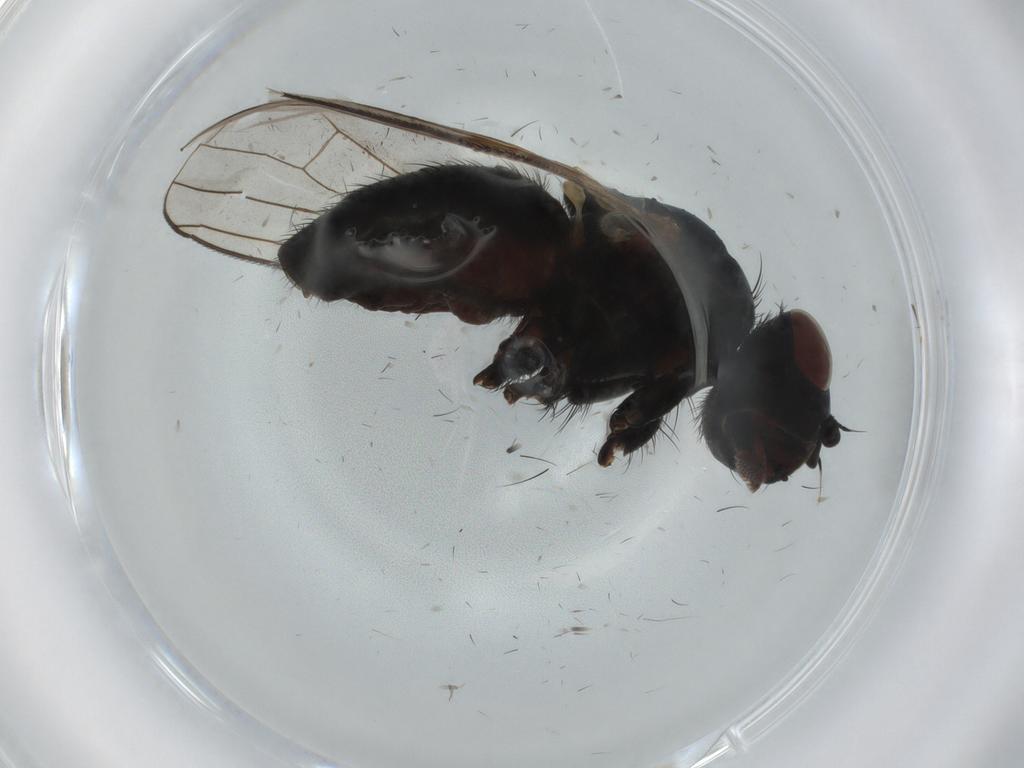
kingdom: Animalia
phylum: Arthropoda
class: Insecta
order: Diptera
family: Anthomyiidae
